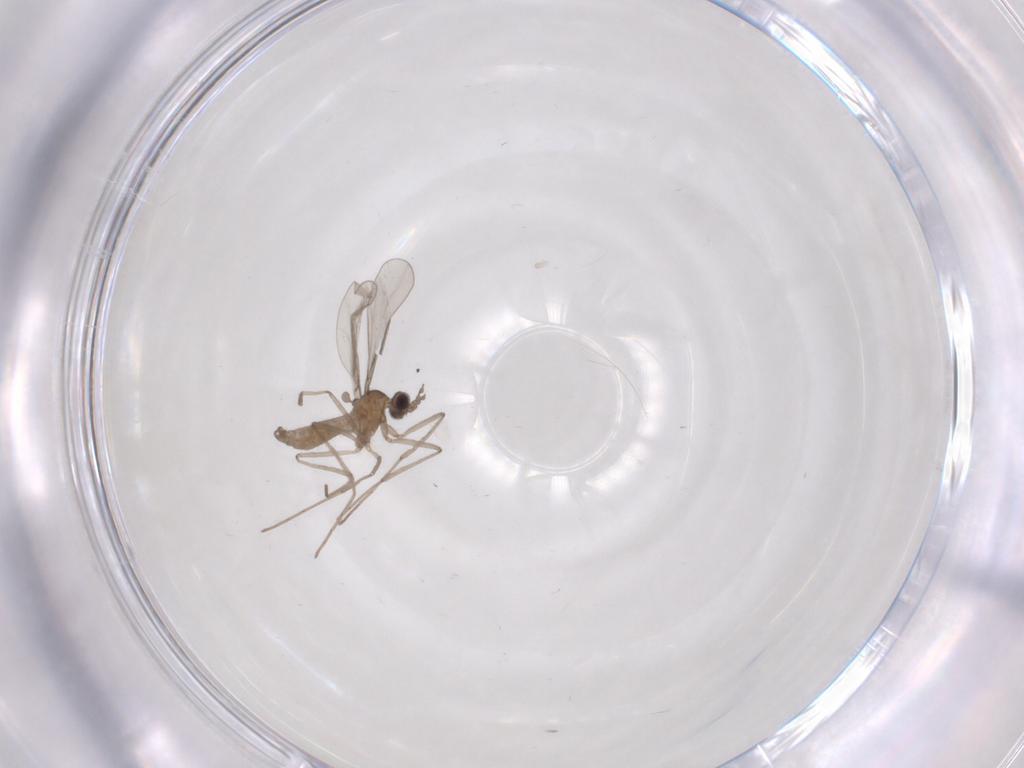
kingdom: Animalia
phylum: Arthropoda
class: Insecta
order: Diptera
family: Cecidomyiidae
